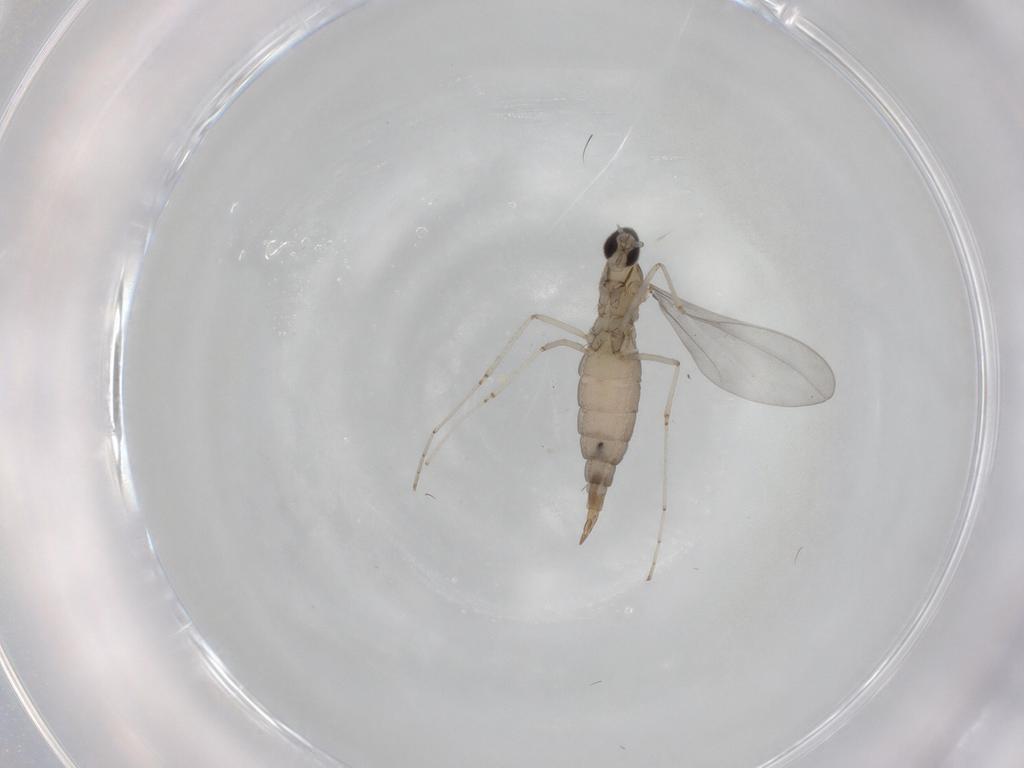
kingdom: Animalia
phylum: Arthropoda
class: Insecta
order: Diptera
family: Cecidomyiidae
